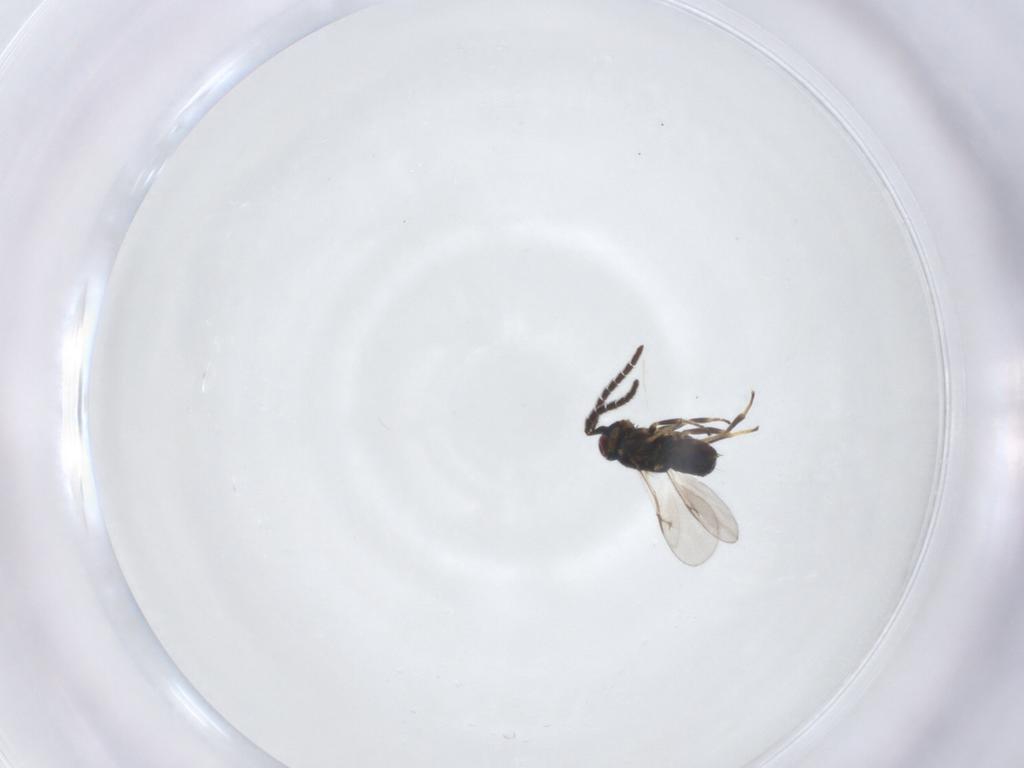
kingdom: Animalia
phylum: Arthropoda
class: Insecta
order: Hymenoptera
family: Encyrtidae
